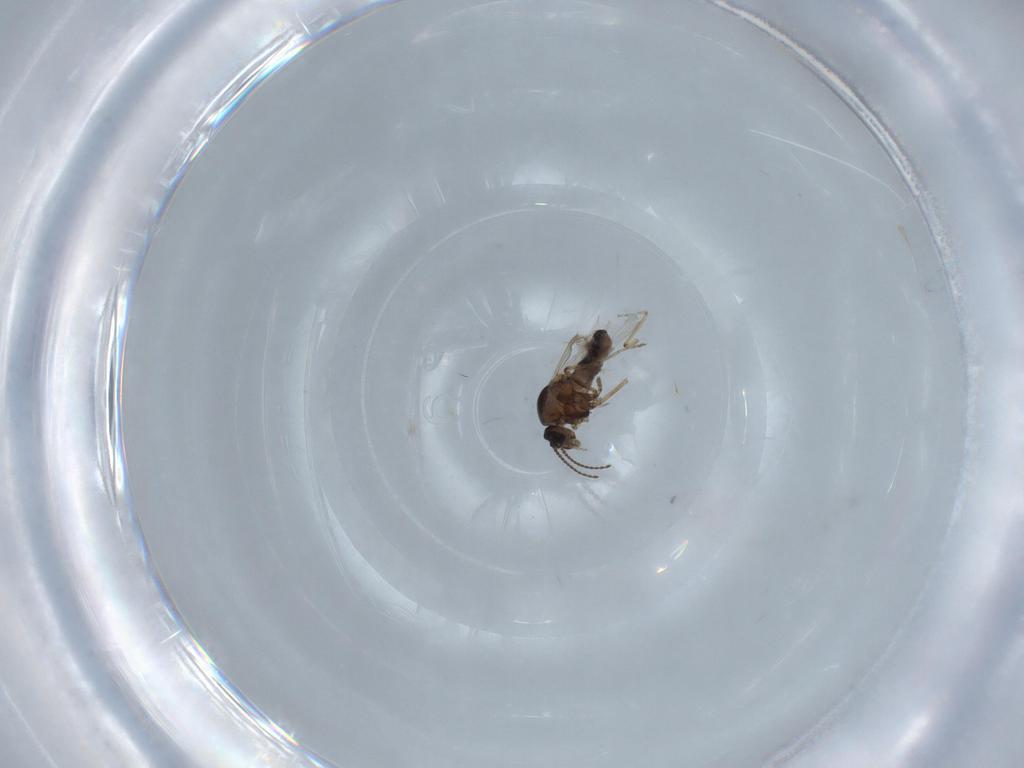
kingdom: Animalia
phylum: Arthropoda
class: Insecta
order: Diptera
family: Ceratopogonidae
